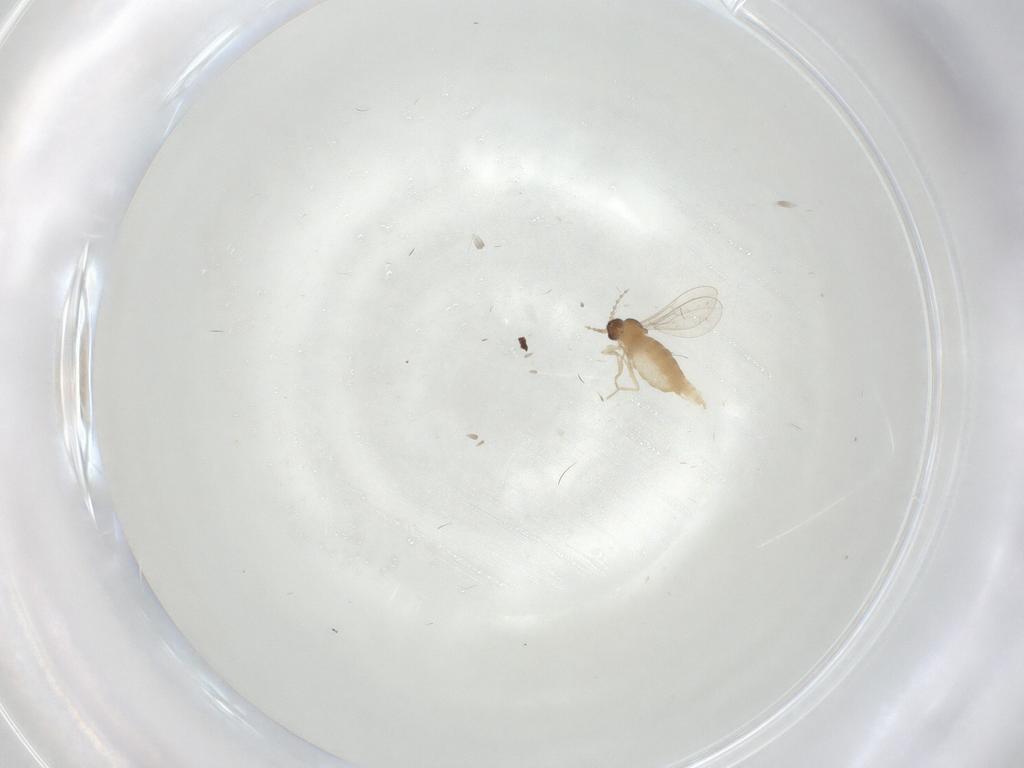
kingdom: Animalia
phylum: Arthropoda
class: Insecta
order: Diptera
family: Cecidomyiidae
